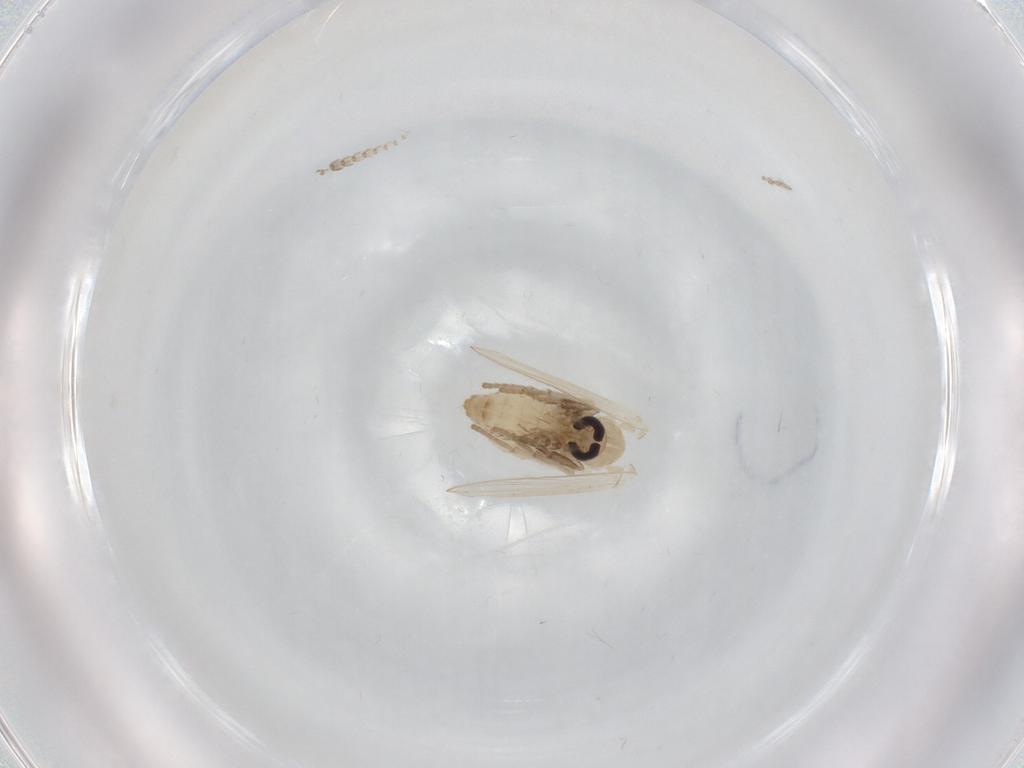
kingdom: Animalia
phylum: Arthropoda
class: Insecta
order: Diptera
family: Psychodidae
